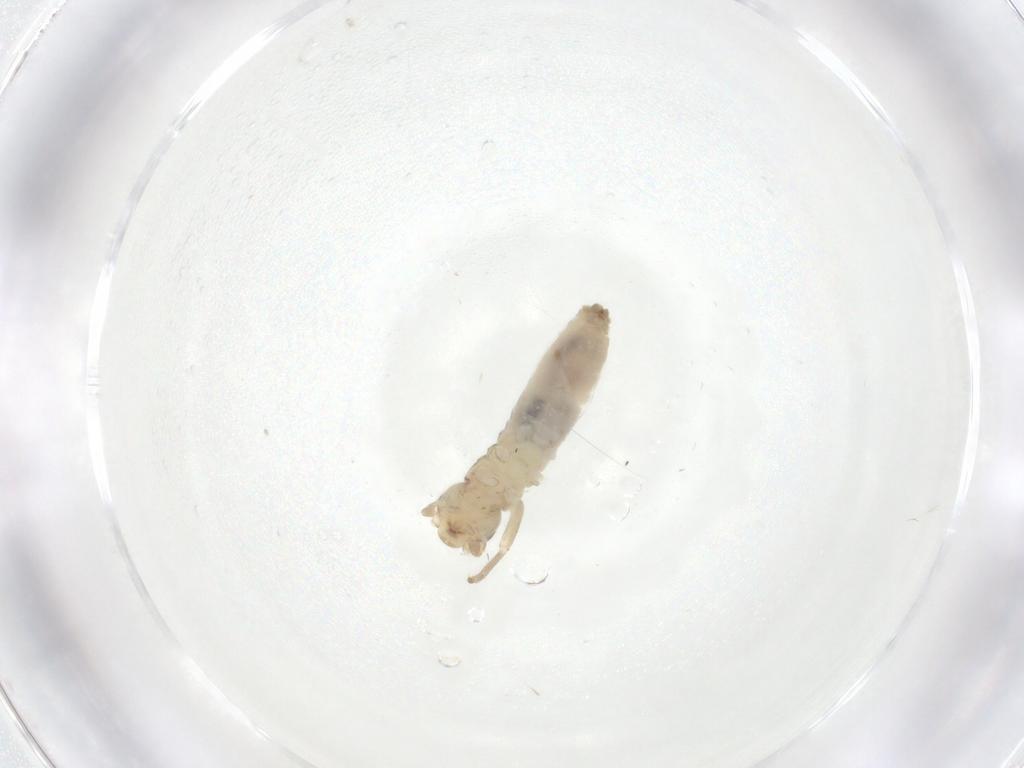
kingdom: Animalia
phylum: Arthropoda
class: Insecta
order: Orthoptera
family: Gryllidae
